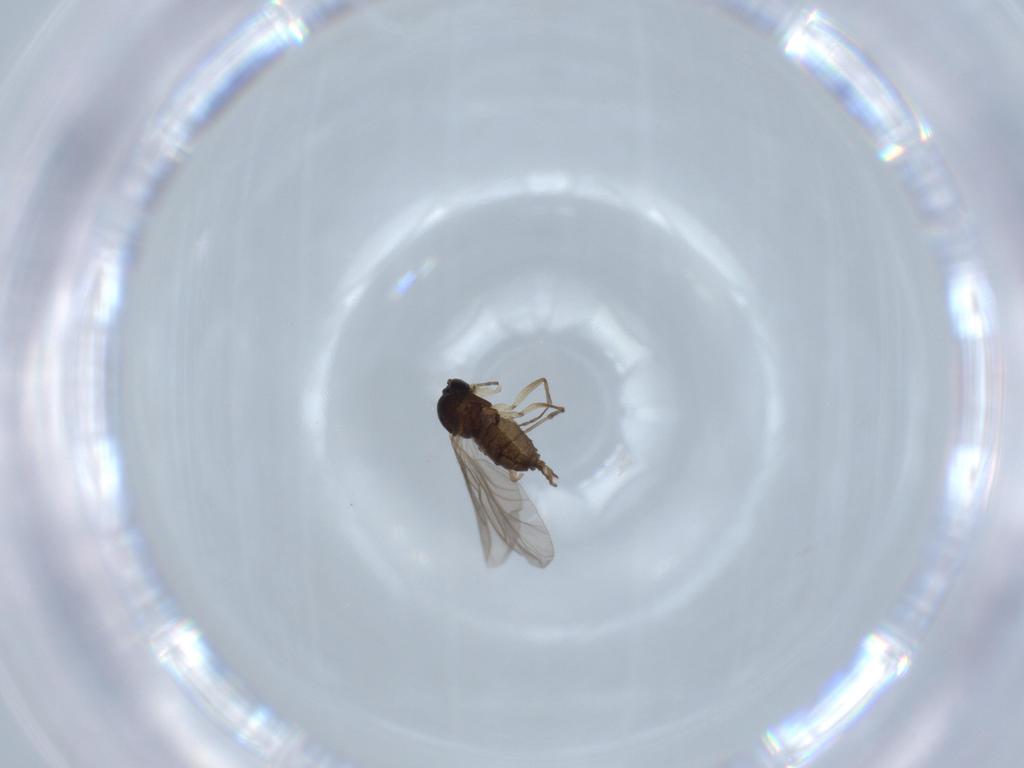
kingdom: Animalia
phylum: Arthropoda
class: Insecta
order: Diptera
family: Sciaridae
